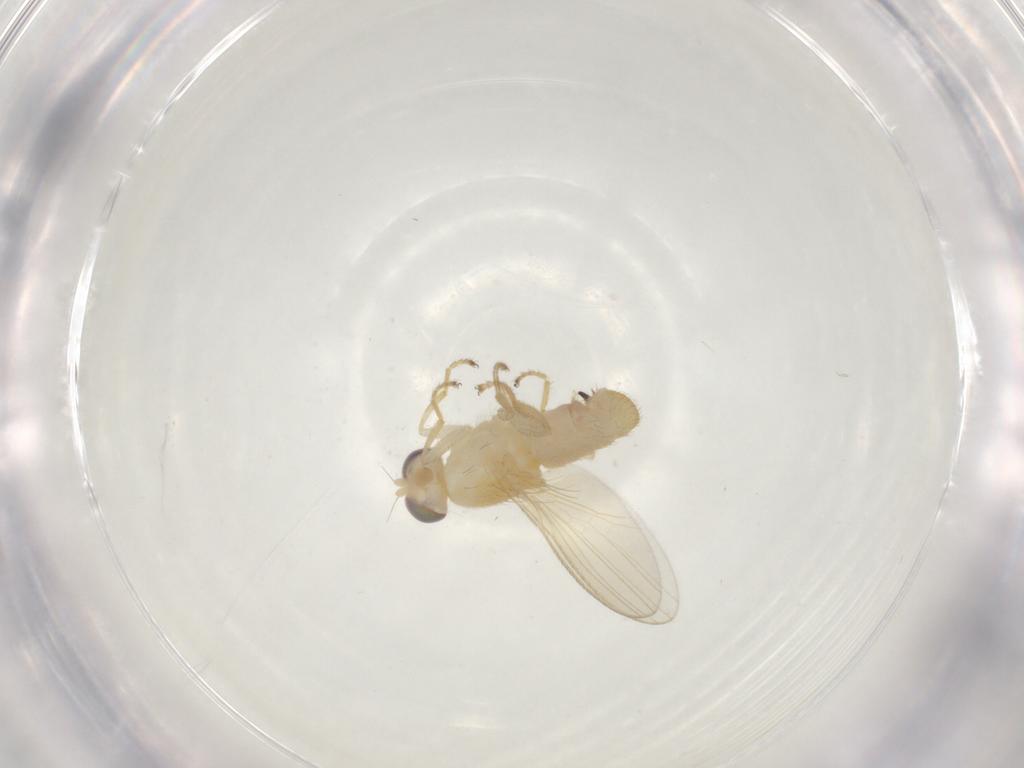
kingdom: Animalia
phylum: Arthropoda
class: Insecta
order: Diptera
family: Chyromyidae
